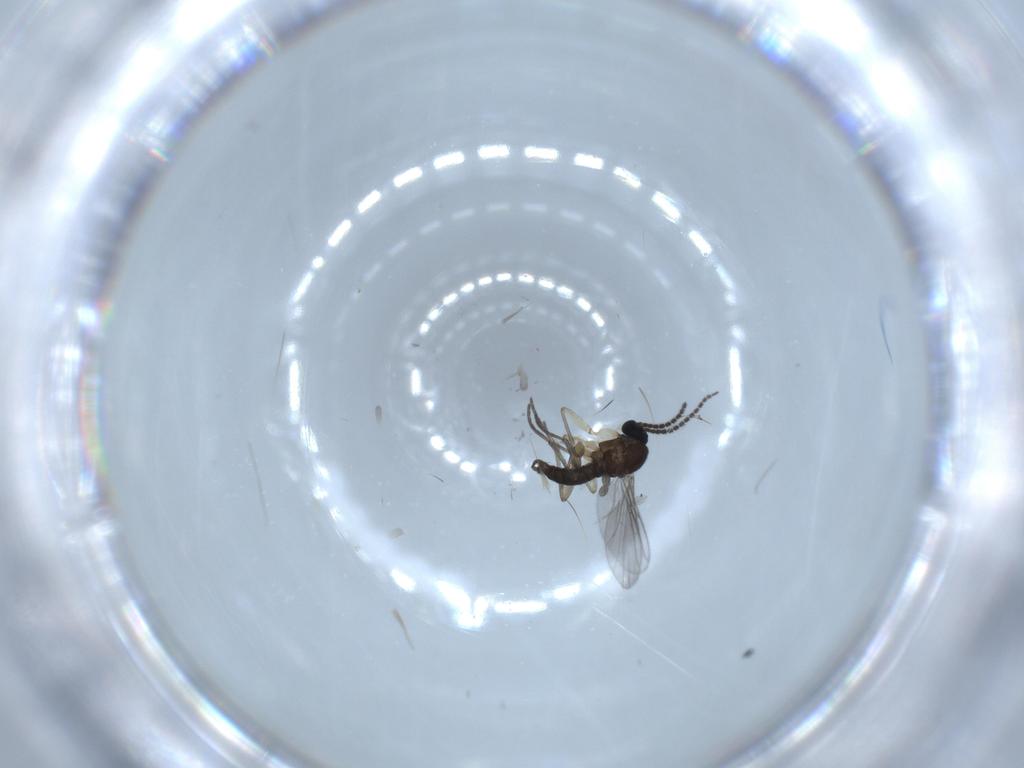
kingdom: Animalia
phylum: Arthropoda
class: Insecta
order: Diptera
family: Sciaridae
